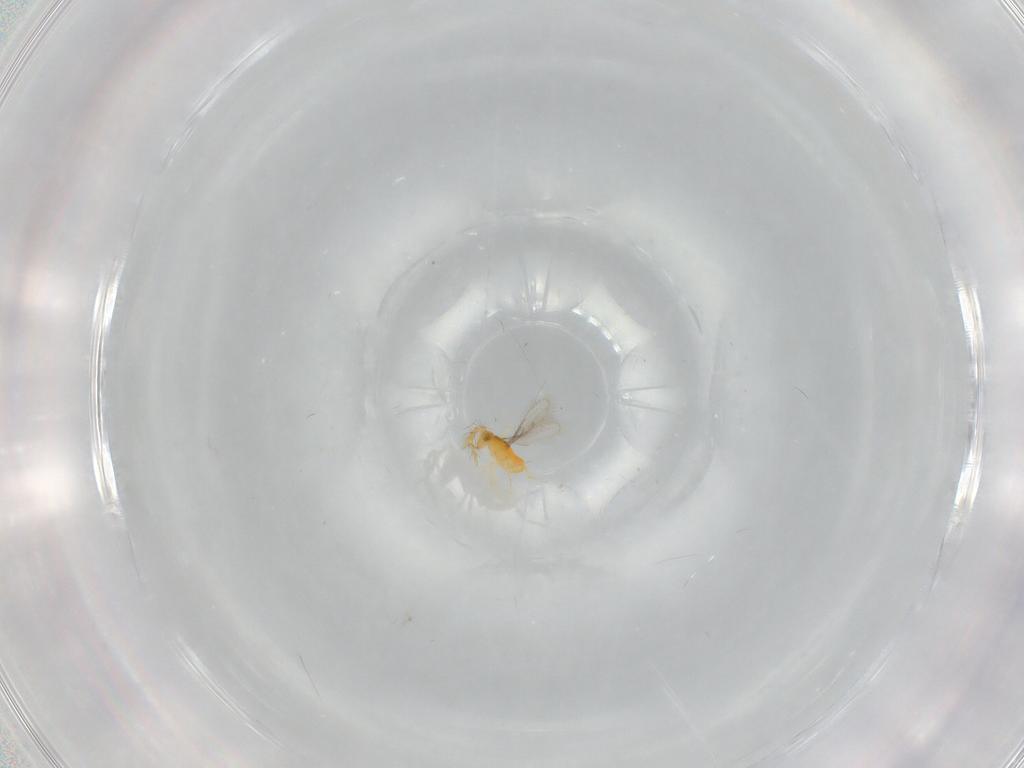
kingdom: Animalia
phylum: Arthropoda
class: Insecta
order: Hymenoptera
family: Aphelinidae
